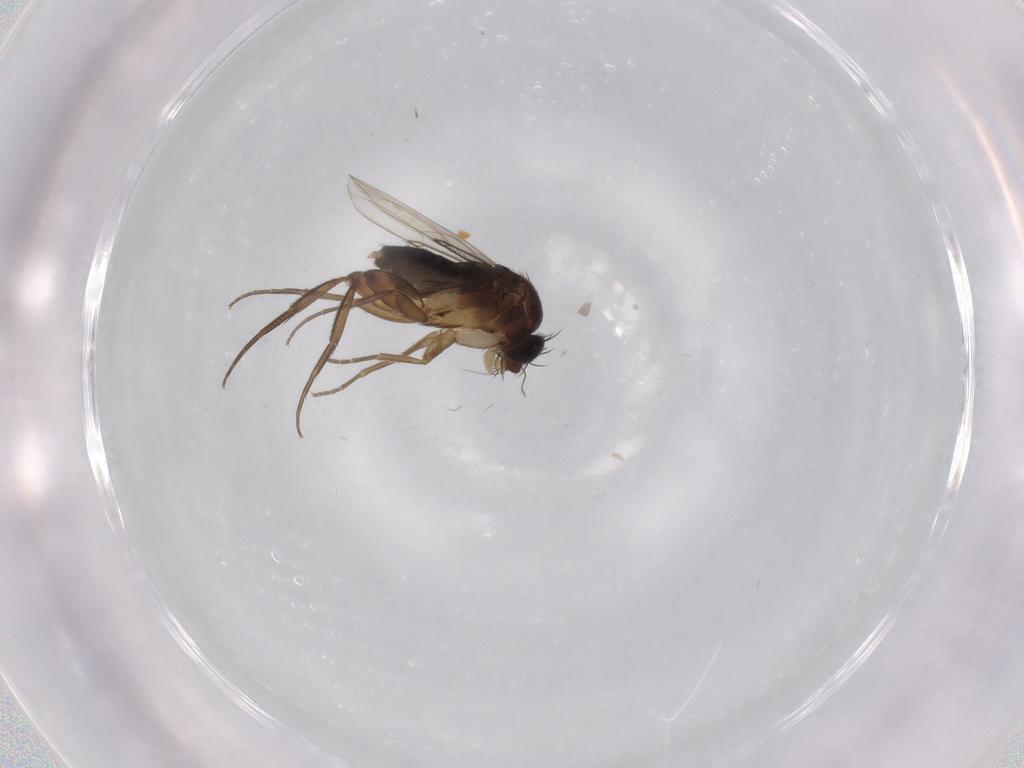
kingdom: Animalia
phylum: Arthropoda
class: Insecta
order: Diptera
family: Phoridae
